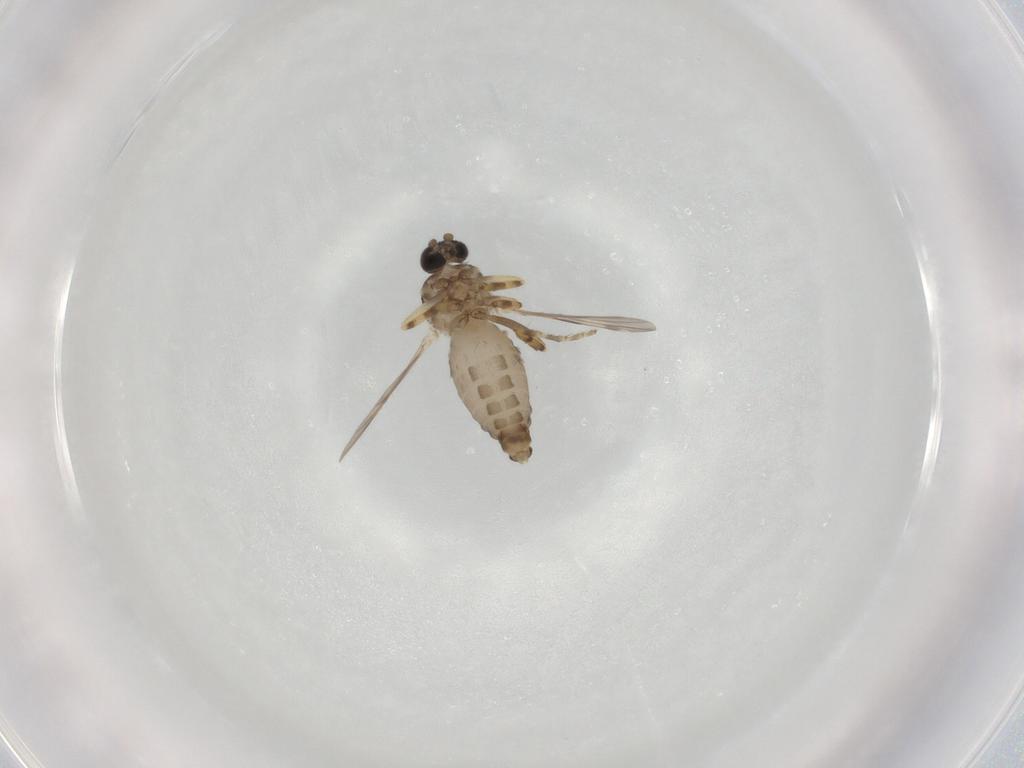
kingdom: Animalia
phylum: Arthropoda
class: Insecta
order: Diptera
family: Ceratopogonidae
